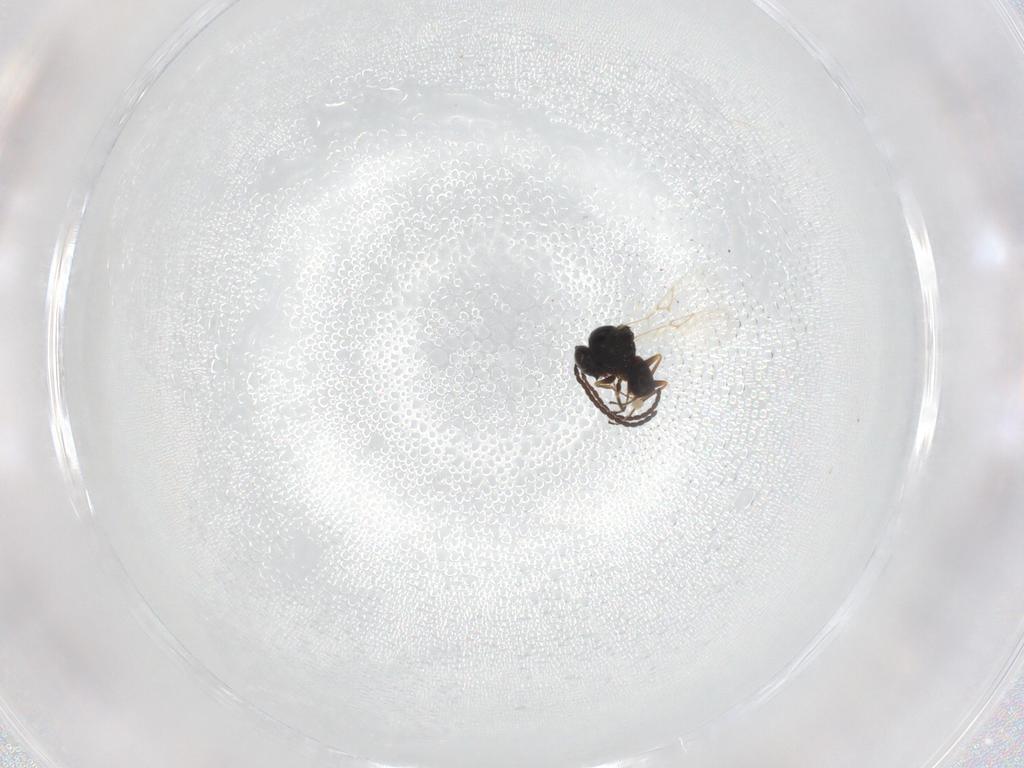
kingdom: Animalia
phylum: Arthropoda
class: Insecta
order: Hymenoptera
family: Figitidae
